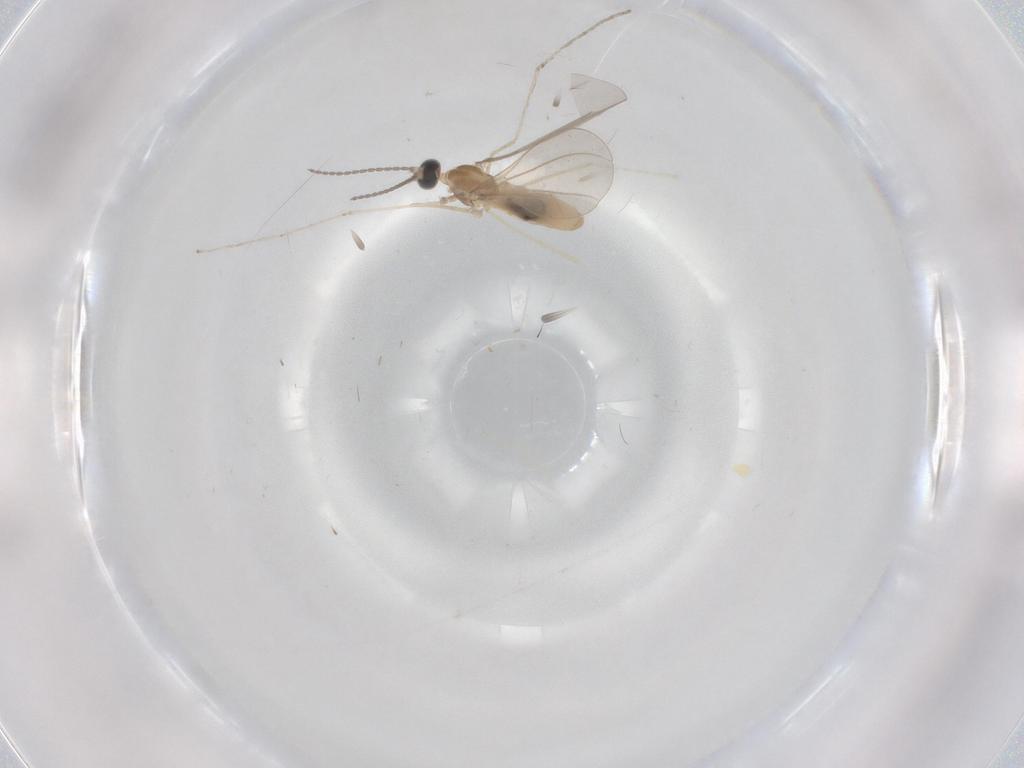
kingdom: Animalia
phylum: Arthropoda
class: Insecta
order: Diptera
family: Cecidomyiidae
